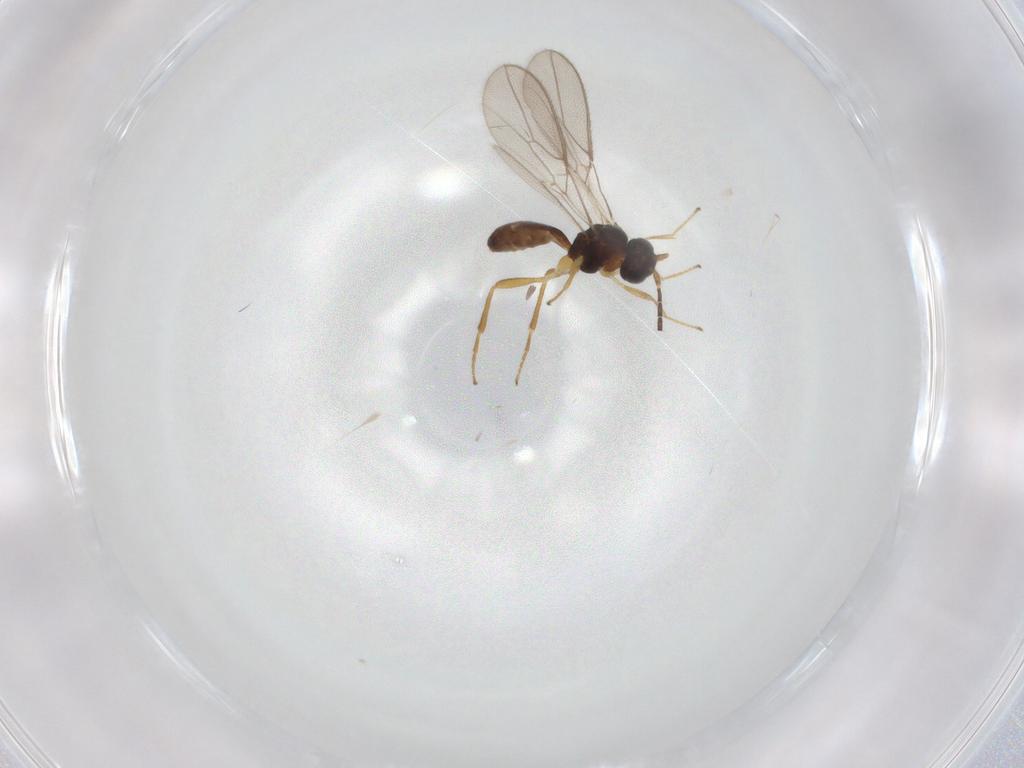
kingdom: Animalia
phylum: Arthropoda
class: Insecta
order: Hymenoptera
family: Braconidae
